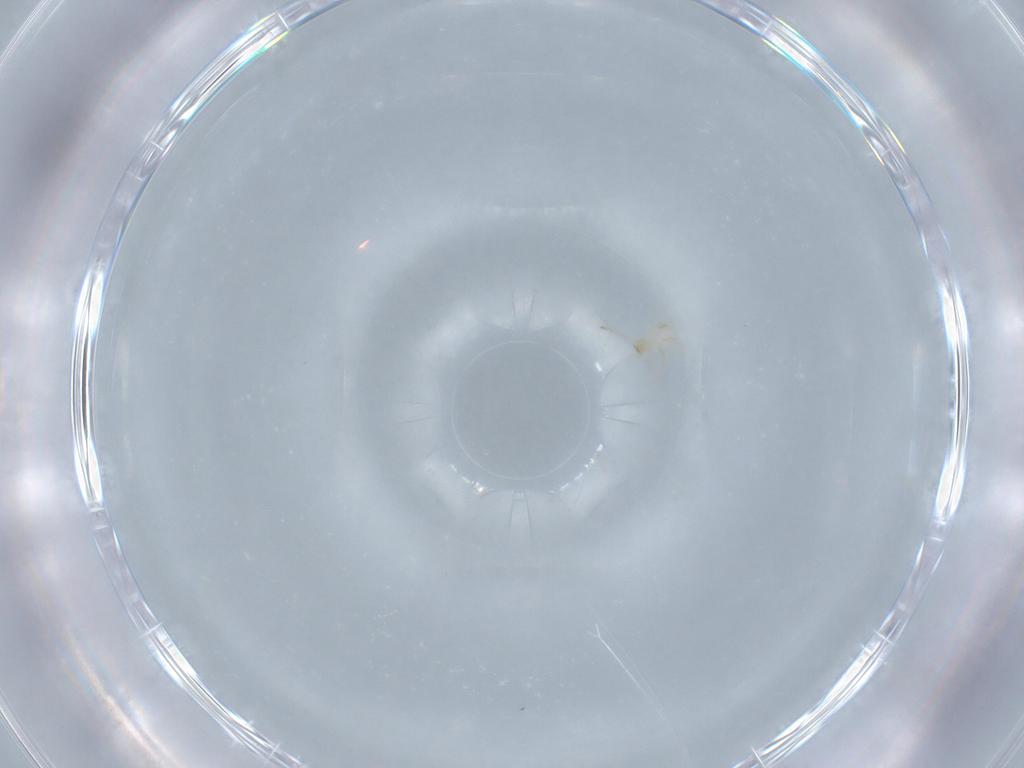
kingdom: Animalia
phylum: Arthropoda
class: Insecta
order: Hymenoptera
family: Mymaridae
